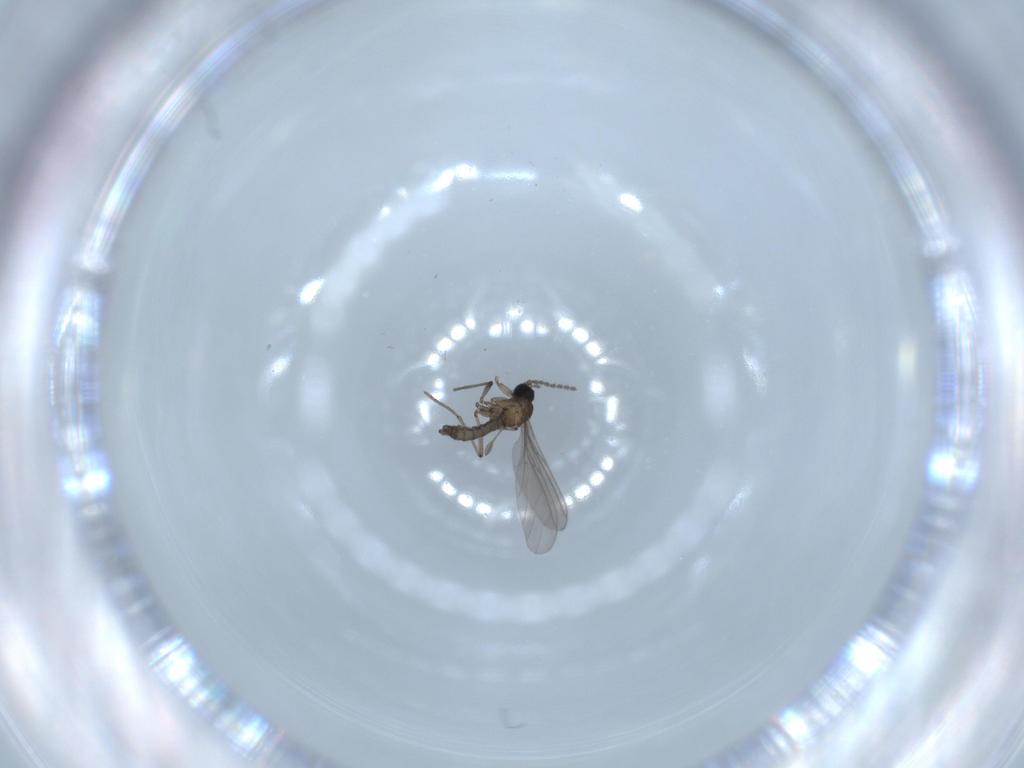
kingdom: Animalia
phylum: Arthropoda
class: Insecta
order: Diptera
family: Sciaridae
